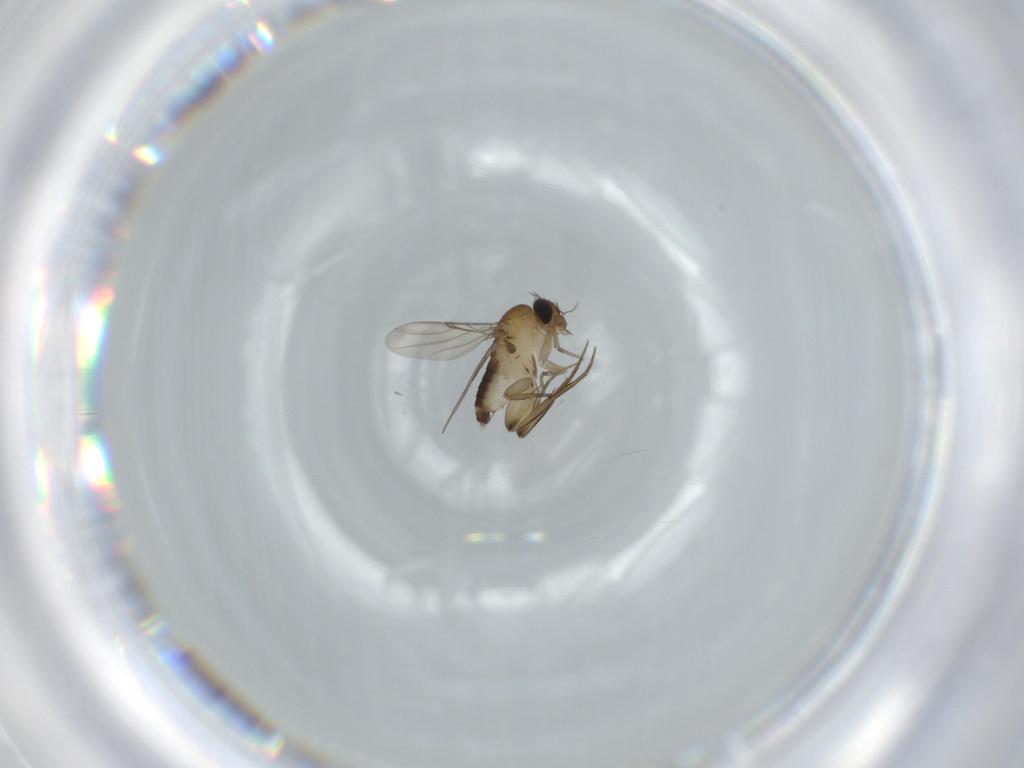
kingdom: Animalia
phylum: Arthropoda
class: Insecta
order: Diptera
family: Phoridae
